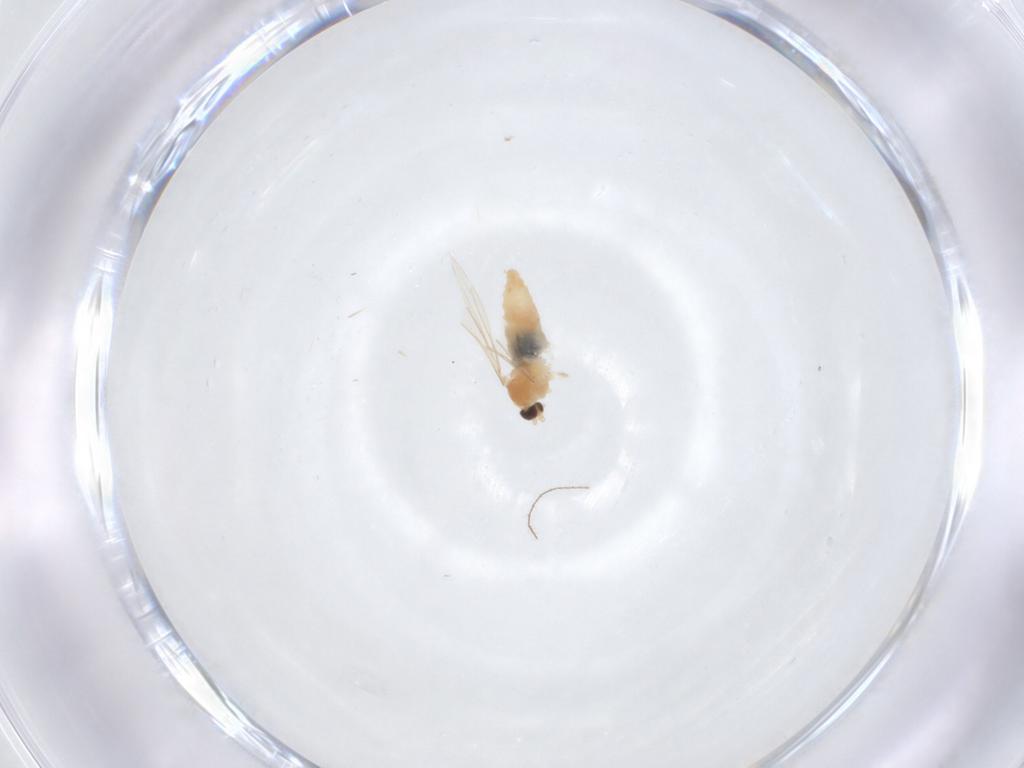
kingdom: Animalia
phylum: Arthropoda
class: Insecta
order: Diptera
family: Cecidomyiidae
